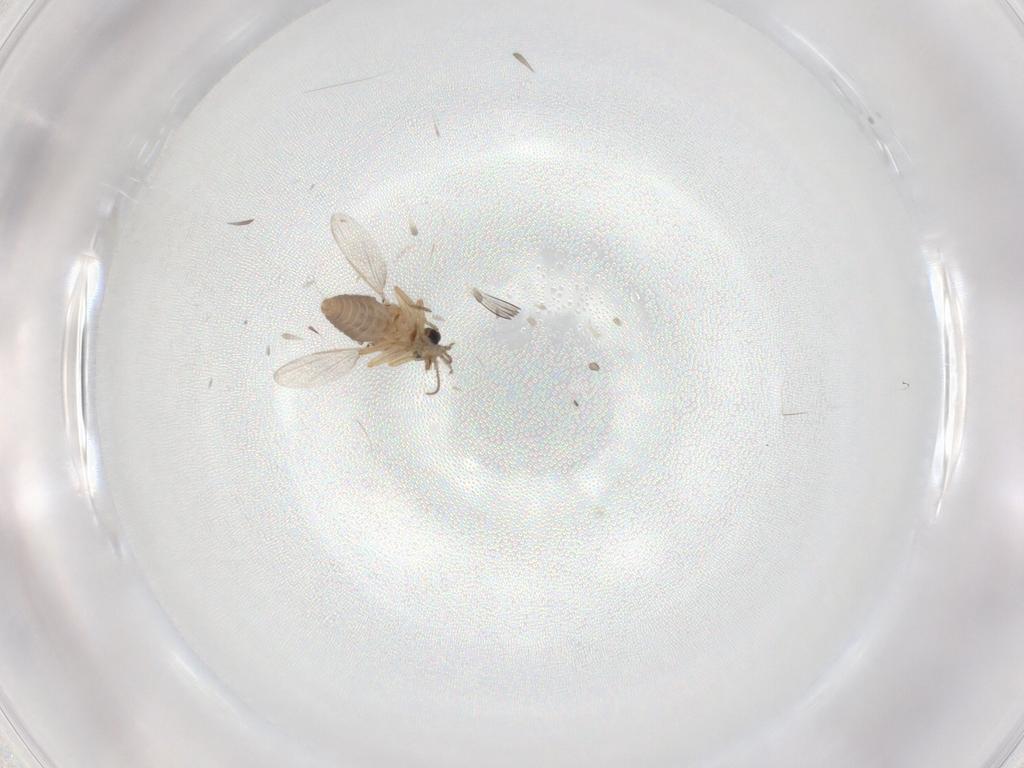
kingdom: Animalia
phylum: Arthropoda
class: Insecta
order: Diptera
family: Ceratopogonidae
